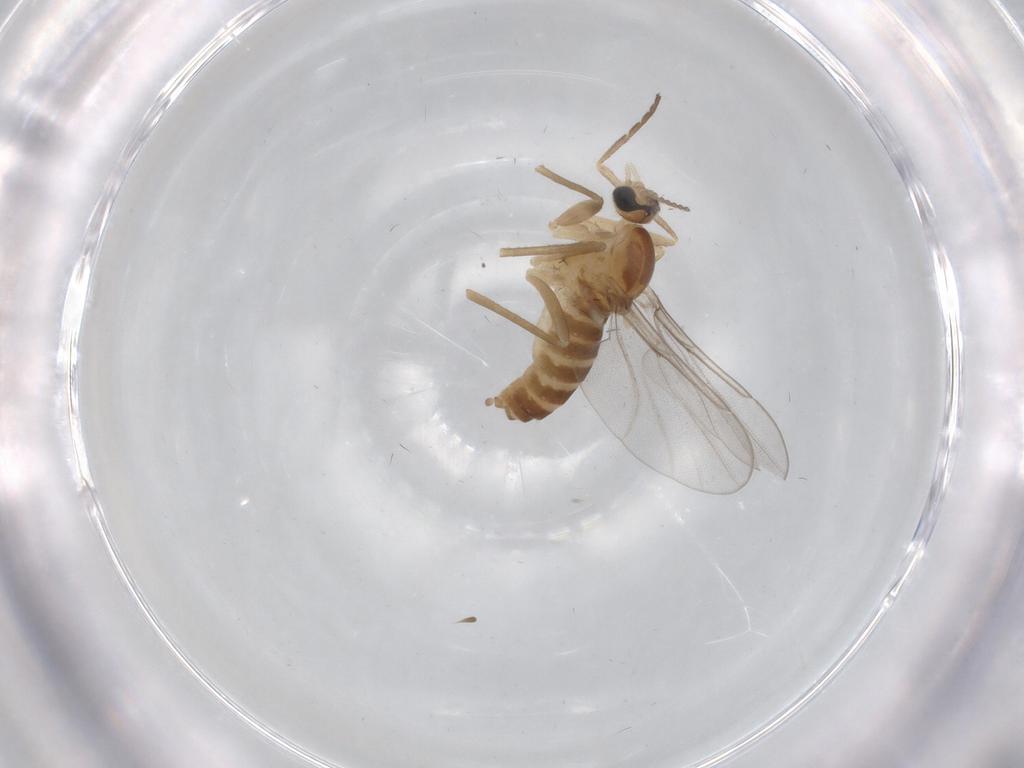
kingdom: Animalia
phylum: Arthropoda
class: Insecta
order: Diptera
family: Cecidomyiidae
